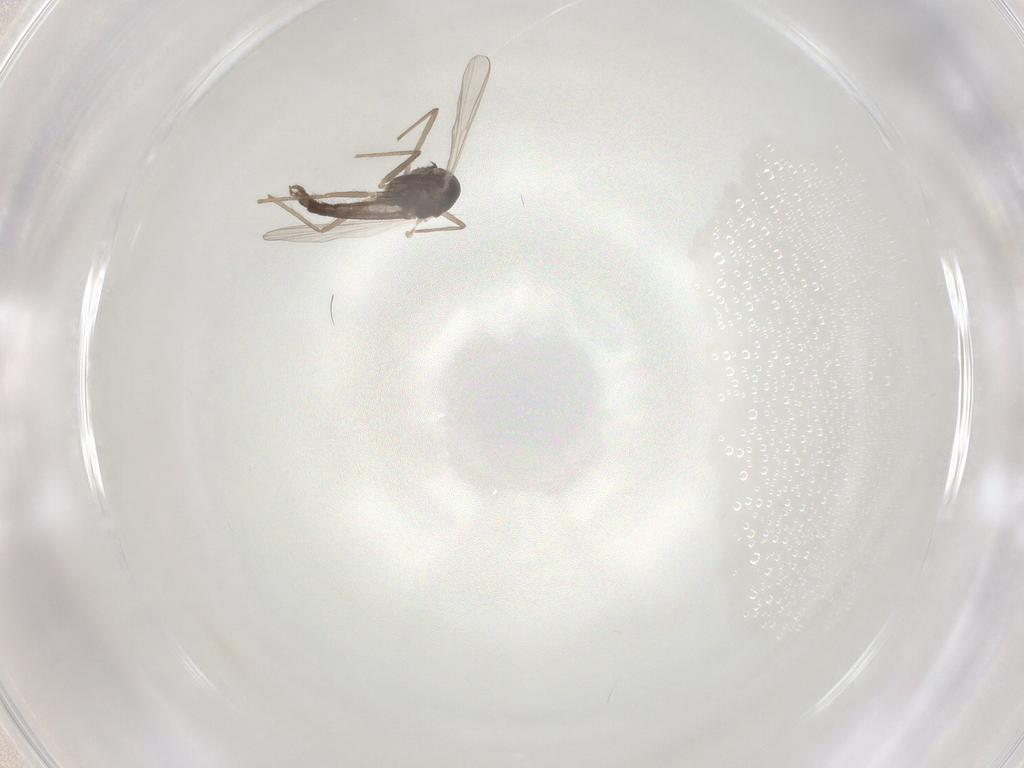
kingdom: Animalia
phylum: Arthropoda
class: Insecta
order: Diptera
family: Chironomidae
